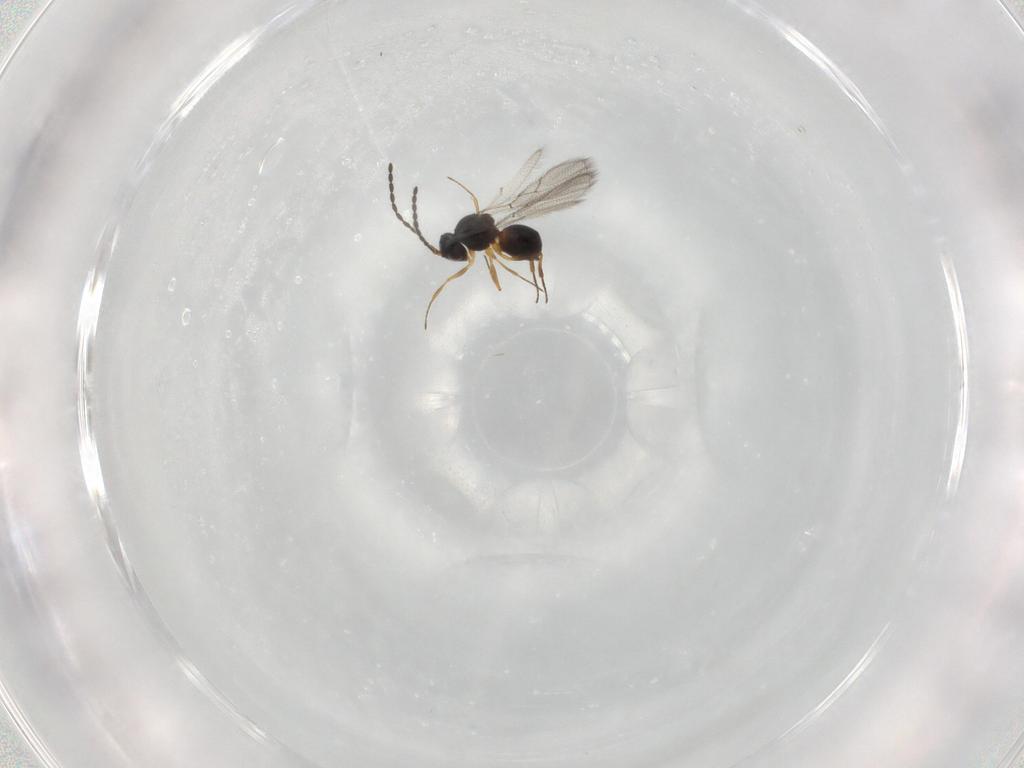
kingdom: Animalia
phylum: Arthropoda
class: Insecta
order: Hymenoptera
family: Figitidae
